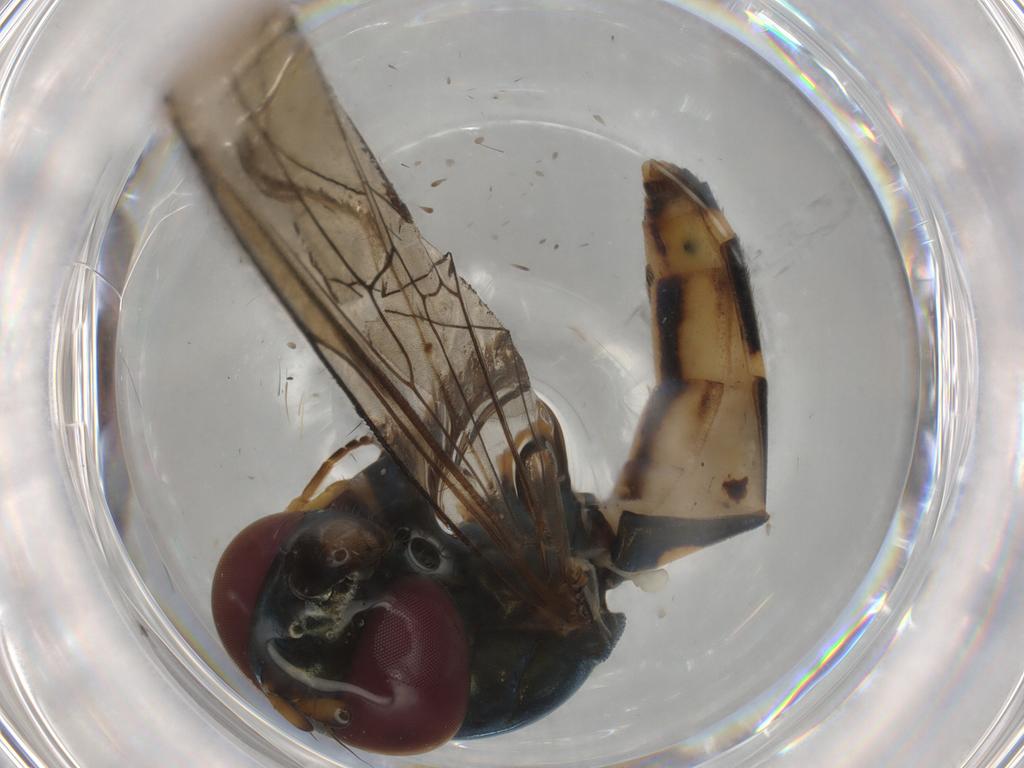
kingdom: Animalia
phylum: Arthropoda
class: Insecta
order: Diptera
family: Syrphidae
